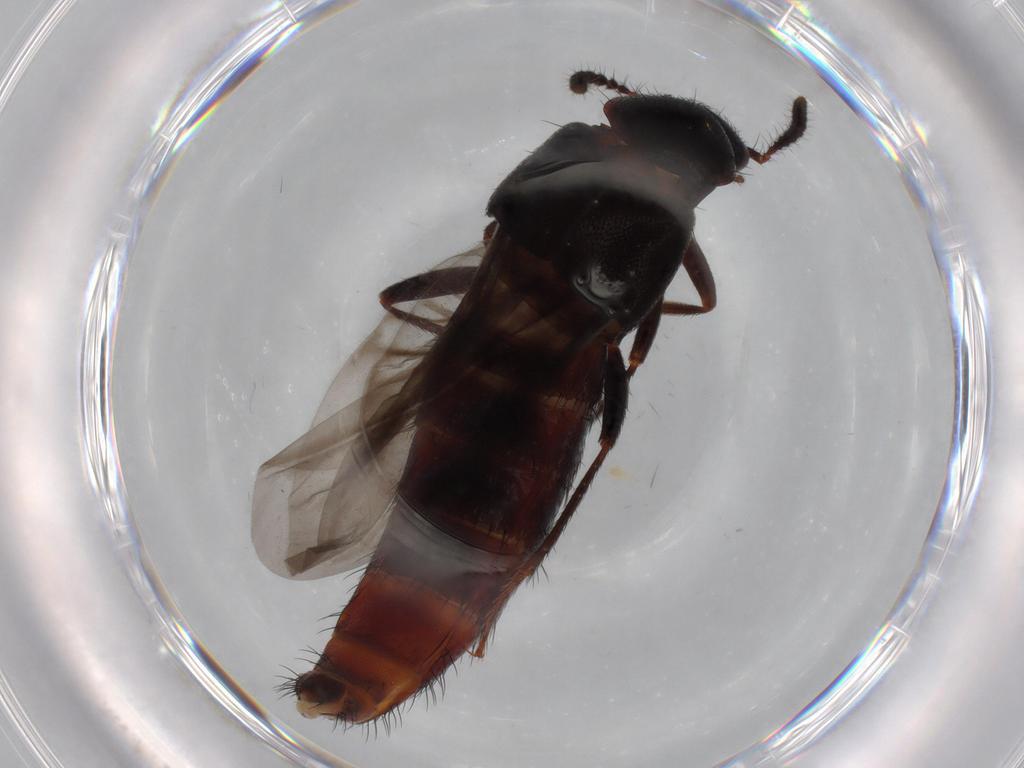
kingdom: Animalia
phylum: Arthropoda
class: Insecta
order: Coleoptera
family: Staphylinidae
